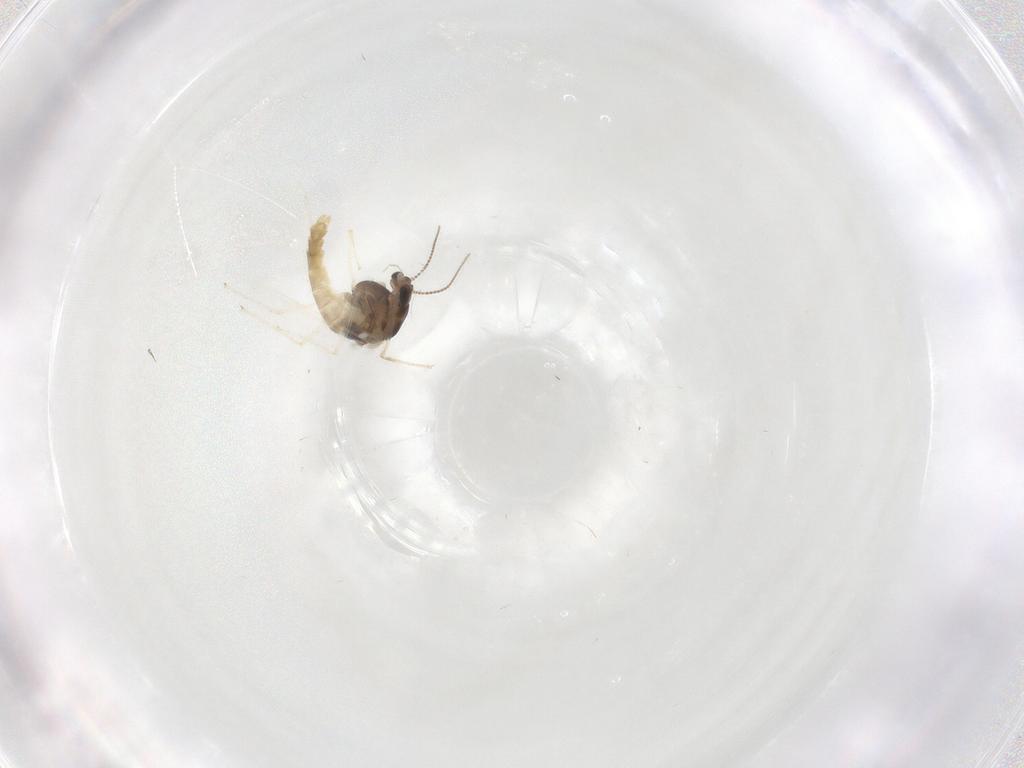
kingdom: Animalia
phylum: Arthropoda
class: Insecta
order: Diptera
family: Chironomidae
